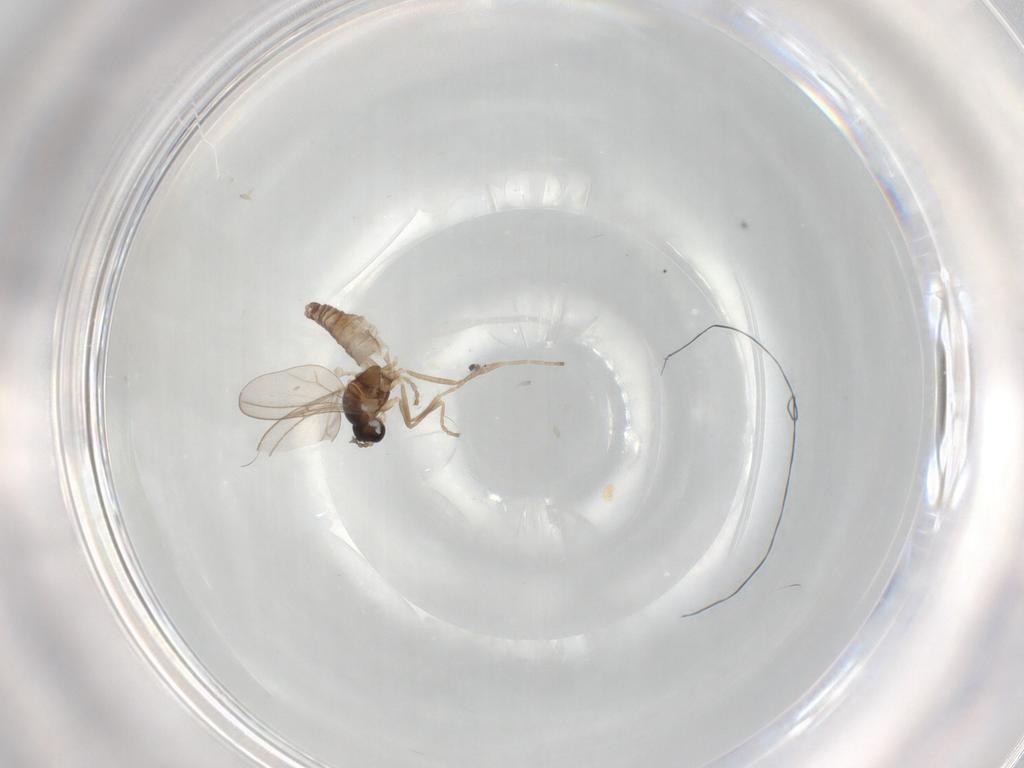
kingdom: Animalia
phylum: Arthropoda
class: Insecta
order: Diptera
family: Cecidomyiidae
